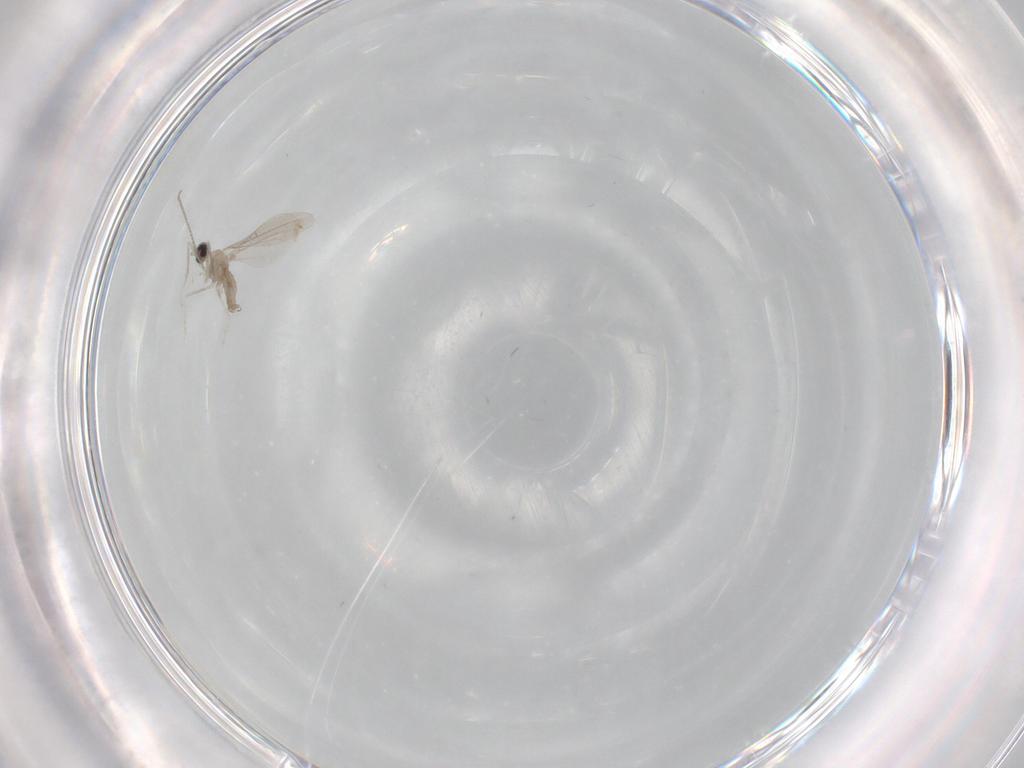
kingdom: Animalia
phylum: Arthropoda
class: Insecta
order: Diptera
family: Cecidomyiidae
